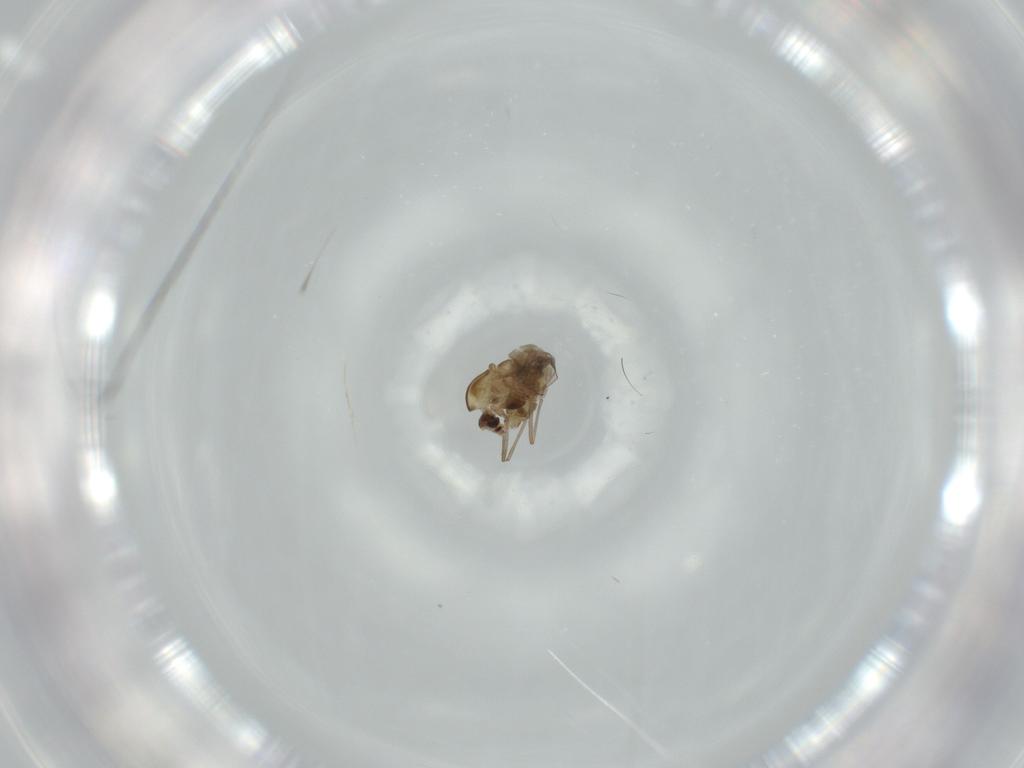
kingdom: Animalia
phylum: Arthropoda
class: Insecta
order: Diptera
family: Chironomidae
